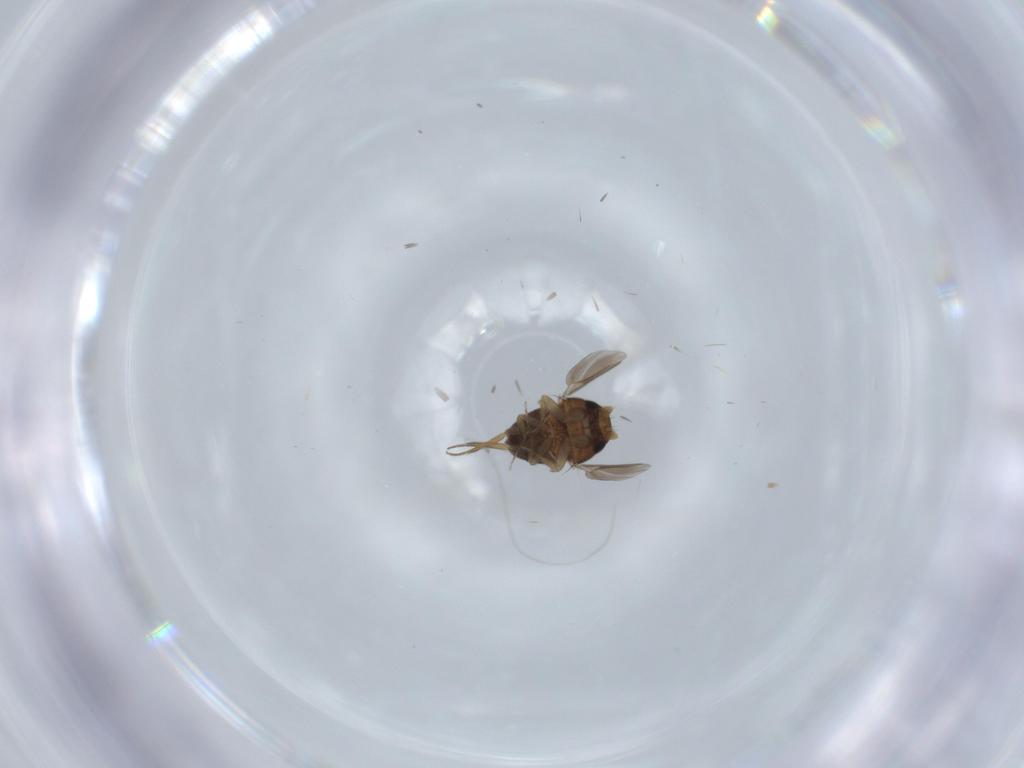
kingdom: Animalia
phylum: Arthropoda
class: Insecta
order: Diptera
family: Phoridae
